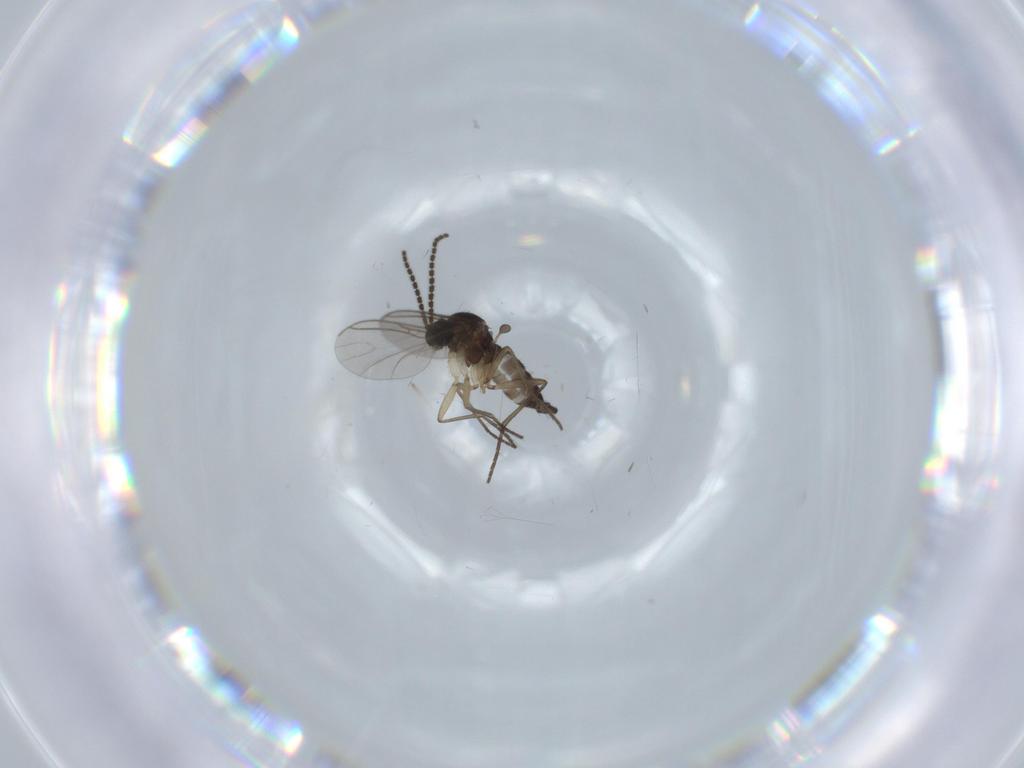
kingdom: Animalia
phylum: Arthropoda
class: Insecta
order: Diptera
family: Sciaridae
